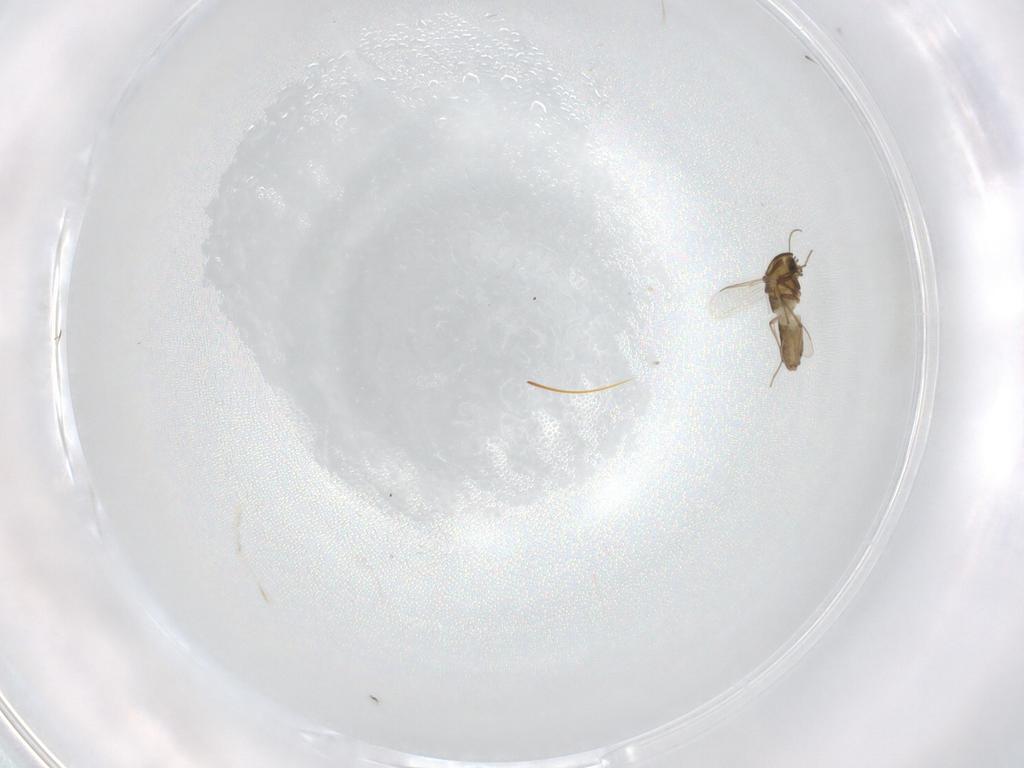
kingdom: Animalia
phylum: Arthropoda
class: Insecta
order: Diptera
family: Chironomidae
